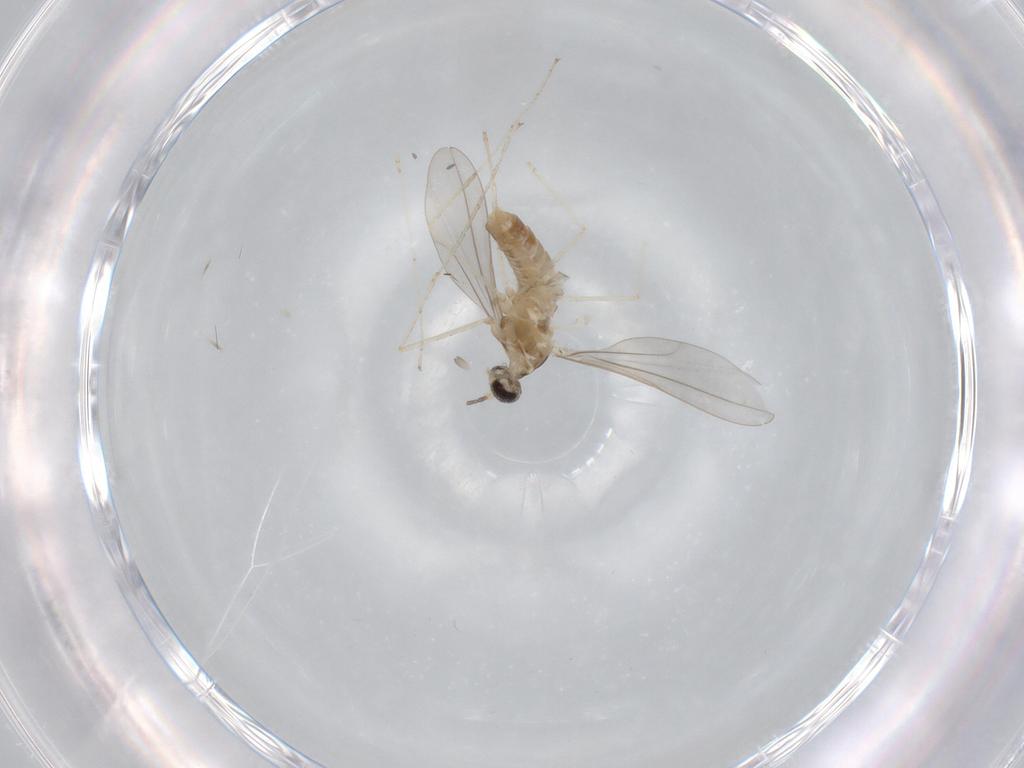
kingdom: Animalia
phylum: Arthropoda
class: Insecta
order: Diptera
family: Cecidomyiidae
